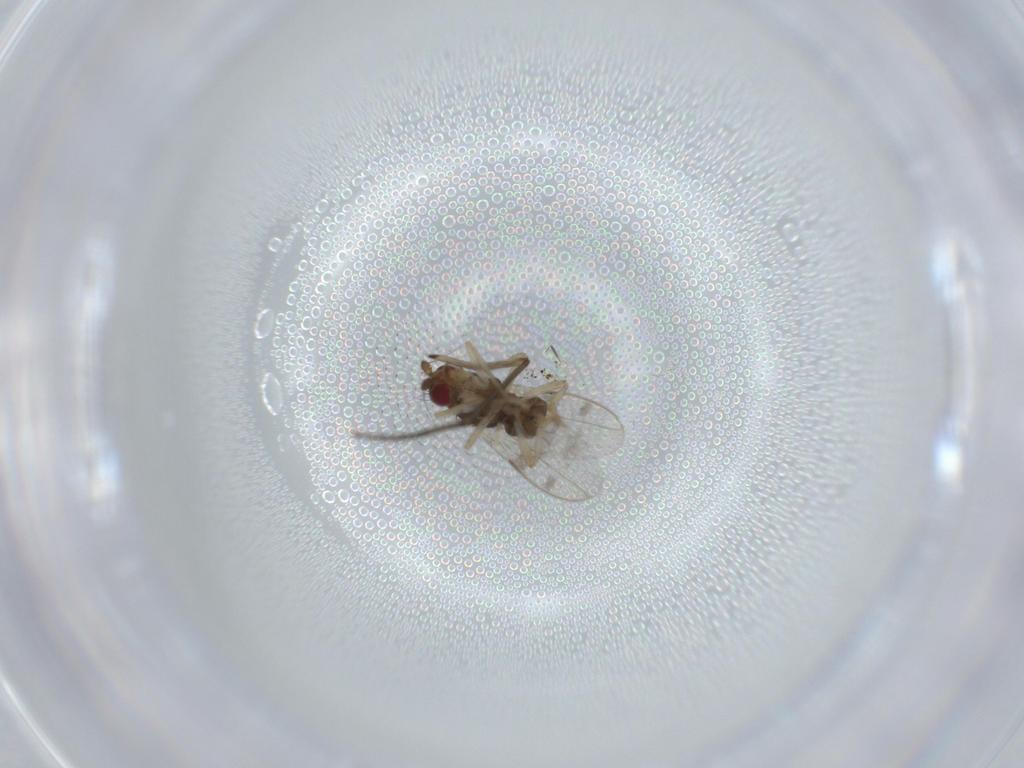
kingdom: Animalia
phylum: Arthropoda
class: Insecta
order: Diptera
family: Sphaeroceridae
